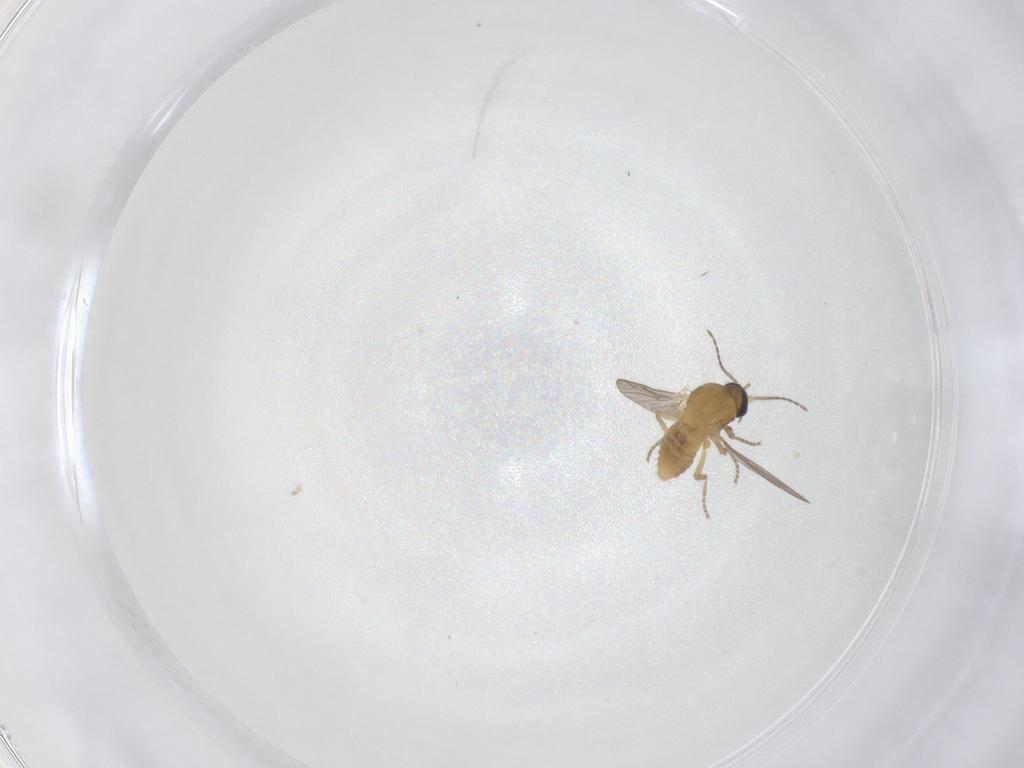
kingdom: Animalia
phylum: Arthropoda
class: Insecta
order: Diptera
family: Ceratopogonidae
